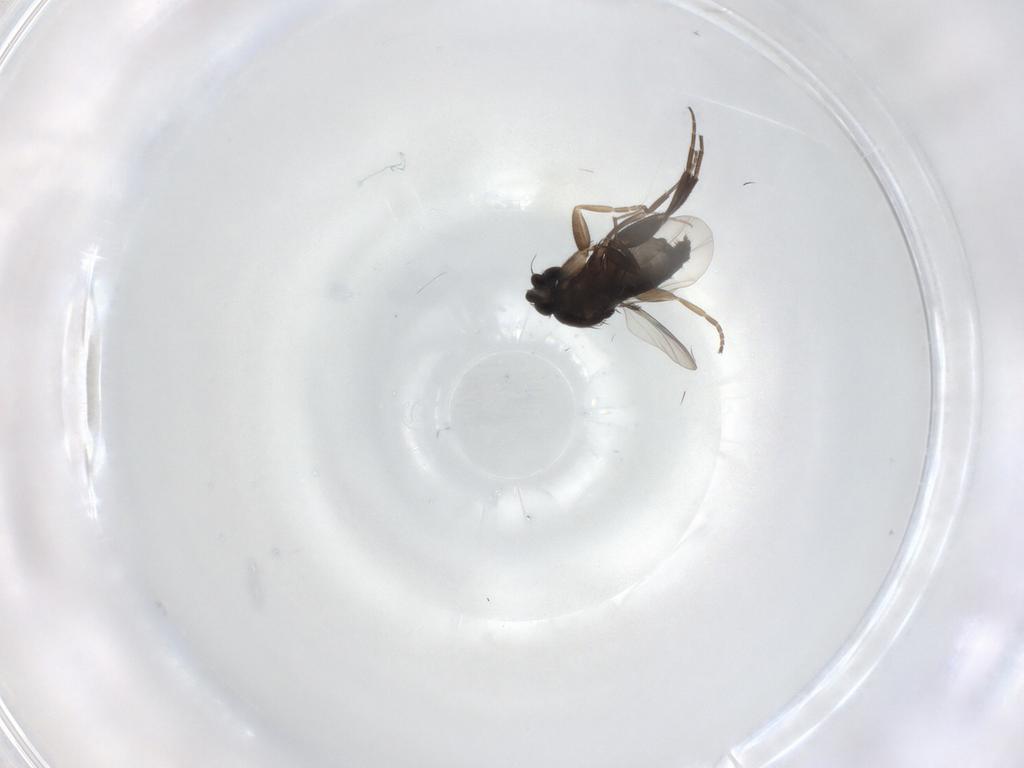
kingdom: Animalia
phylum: Arthropoda
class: Insecta
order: Diptera
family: Phoridae
